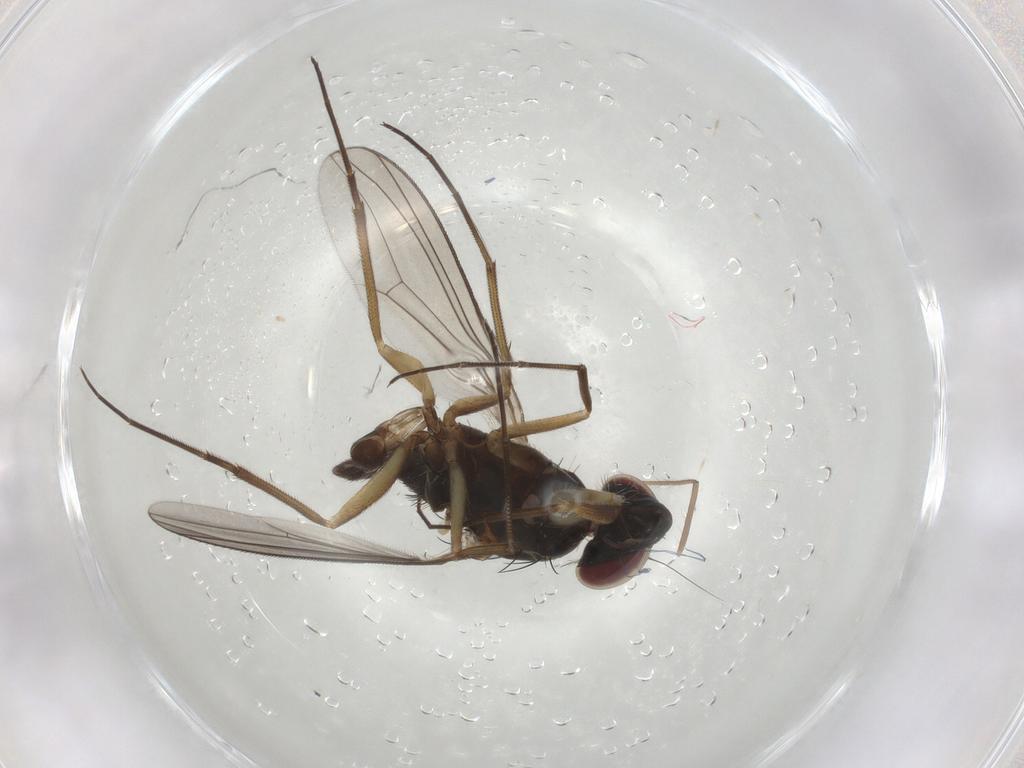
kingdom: Animalia
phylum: Arthropoda
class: Insecta
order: Diptera
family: Dolichopodidae
